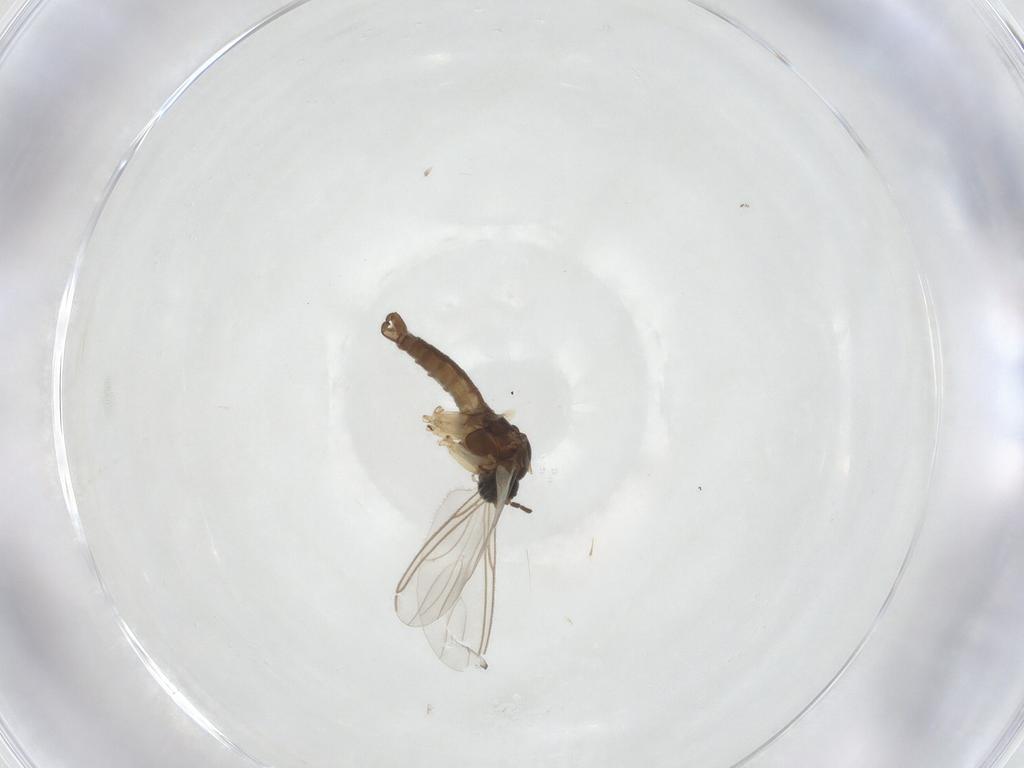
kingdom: Animalia
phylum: Arthropoda
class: Insecta
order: Diptera
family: Sciaridae
